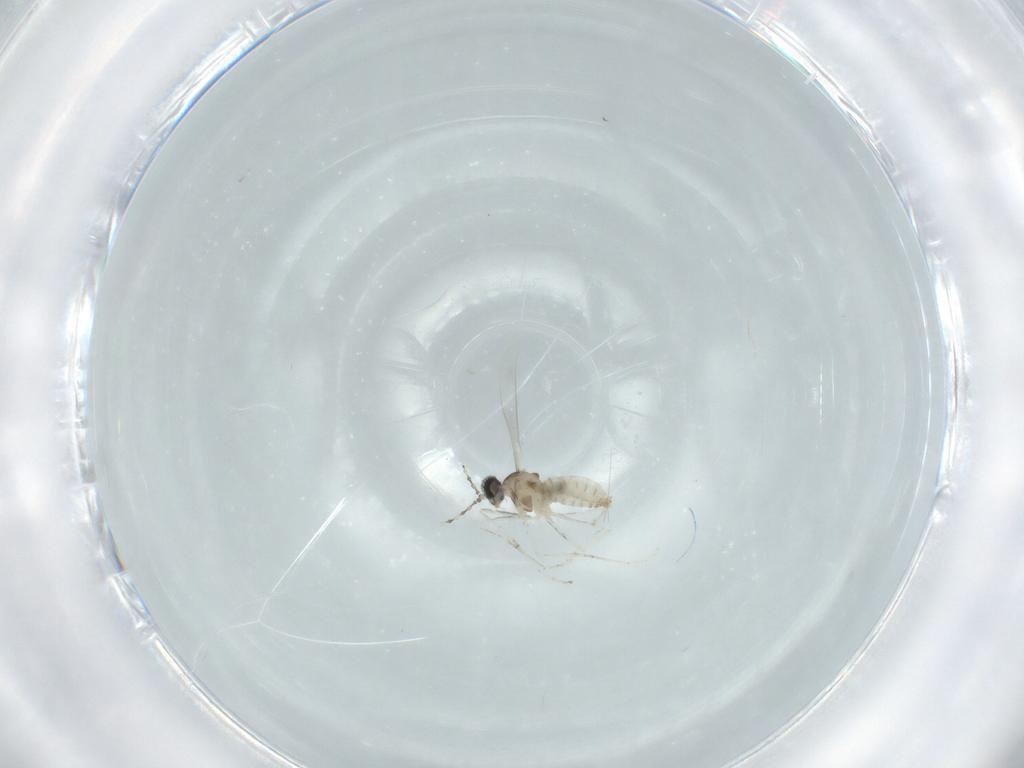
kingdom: Animalia
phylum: Arthropoda
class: Insecta
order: Diptera
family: Cecidomyiidae
